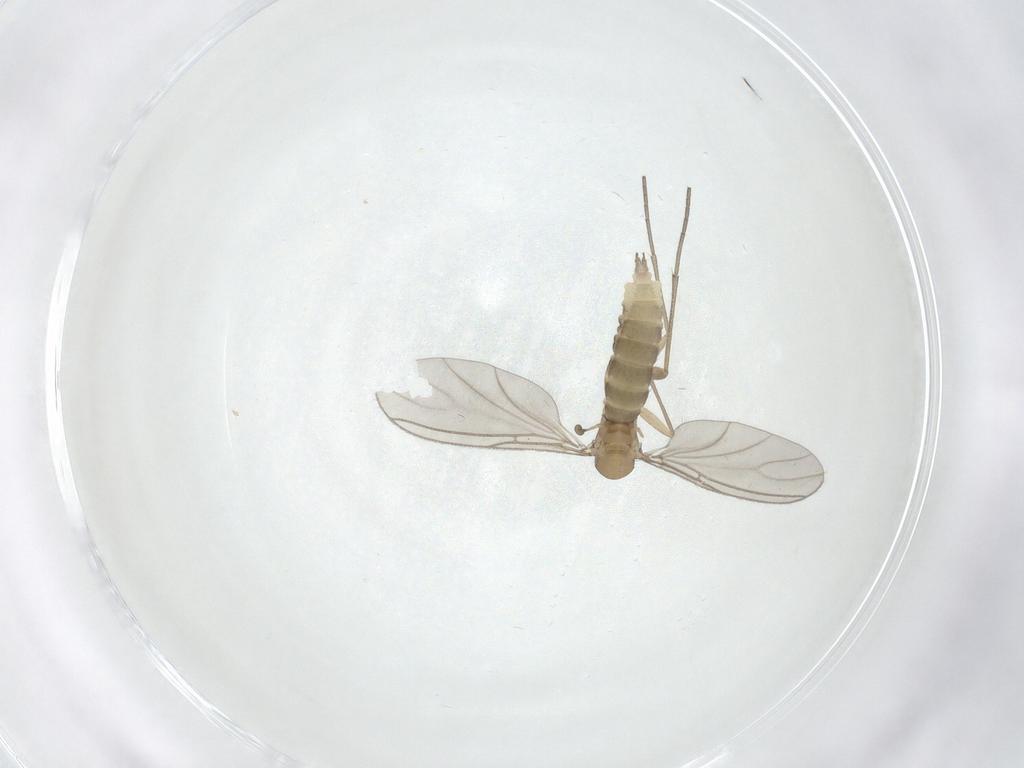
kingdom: Animalia
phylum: Arthropoda
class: Insecta
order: Diptera
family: Sciaridae
